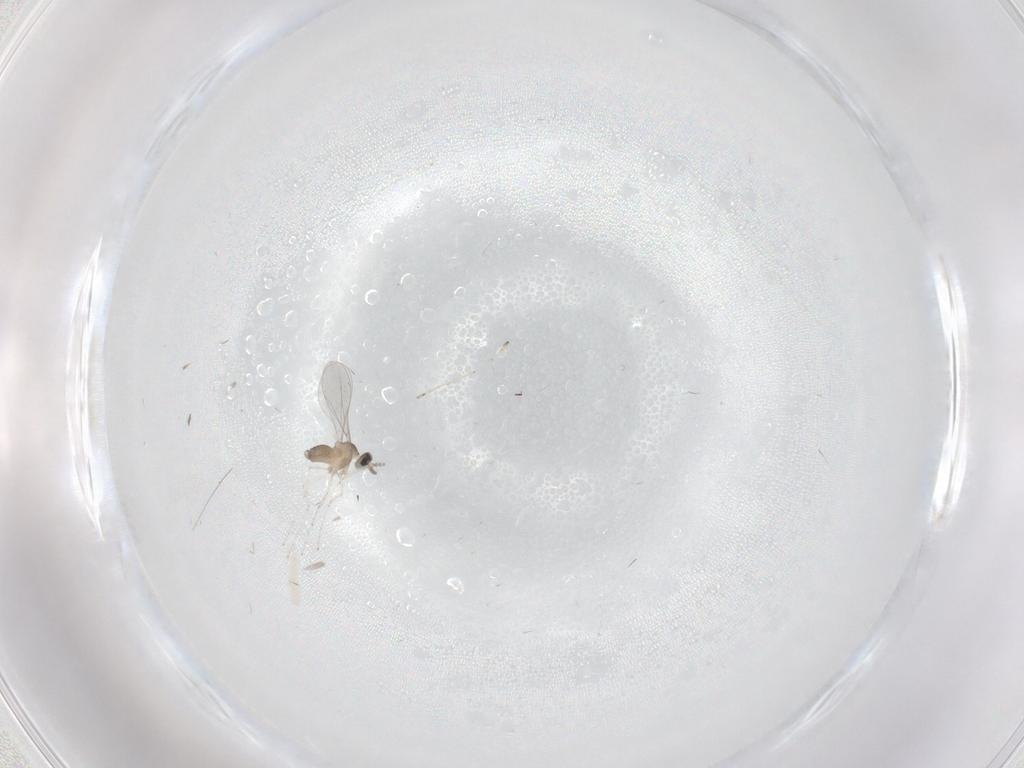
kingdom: Animalia
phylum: Arthropoda
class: Insecta
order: Diptera
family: Cecidomyiidae
